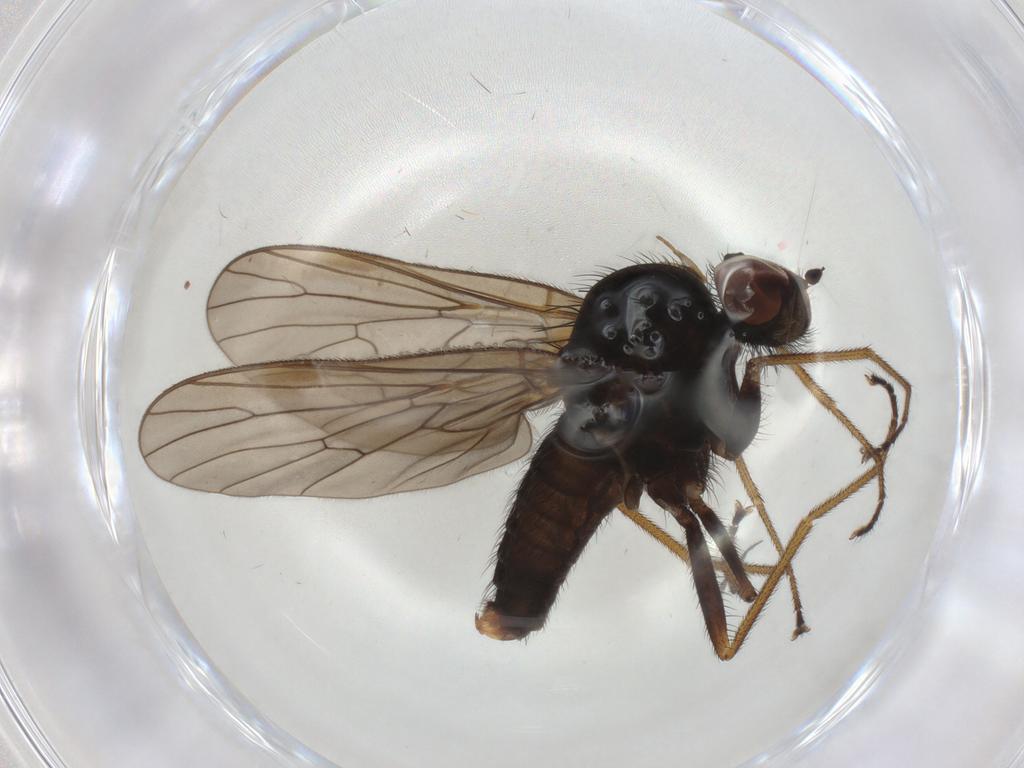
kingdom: Animalia
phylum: Arthropoda
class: Insecta
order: Diptera
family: Brachystomatidae
